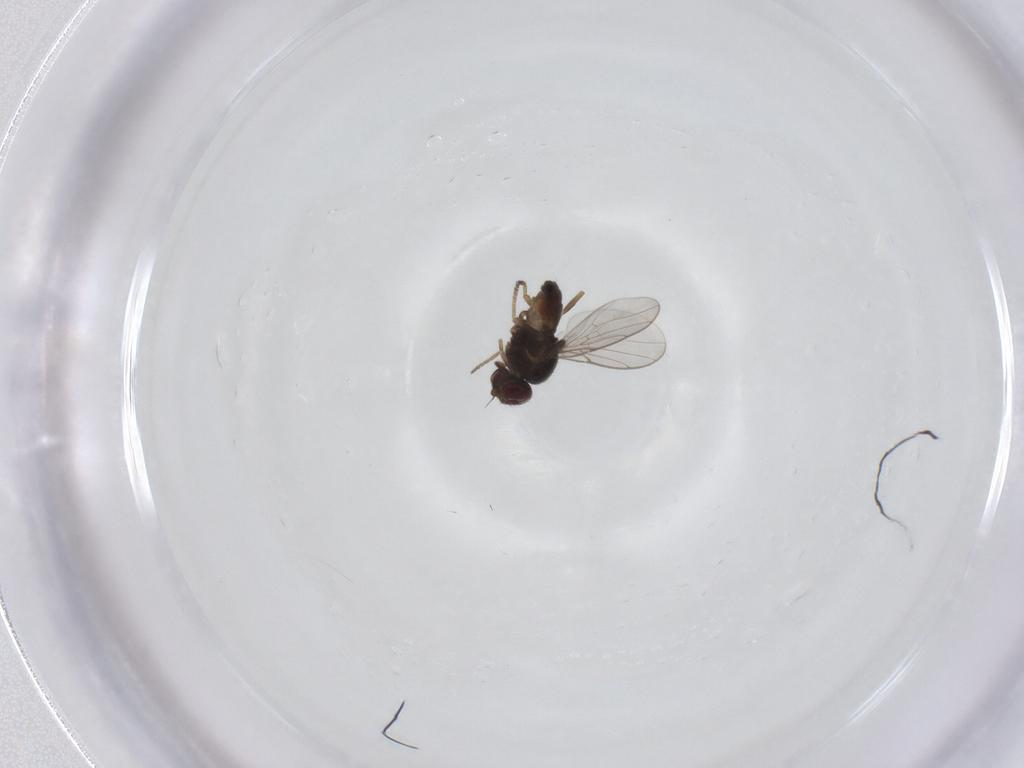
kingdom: Animalia
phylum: Arthropoda
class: Insecta
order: Diptera
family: Chloropidae
